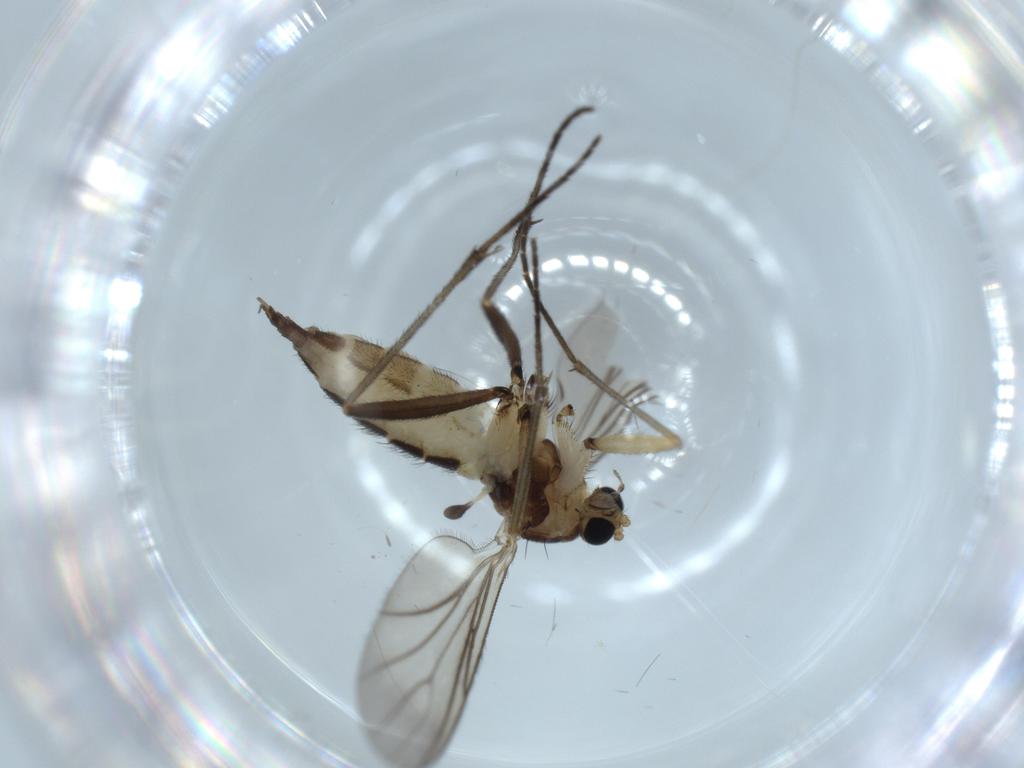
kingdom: Animalia
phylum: Arthropoda
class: Insecta
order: Diptera
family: Sciaridae
